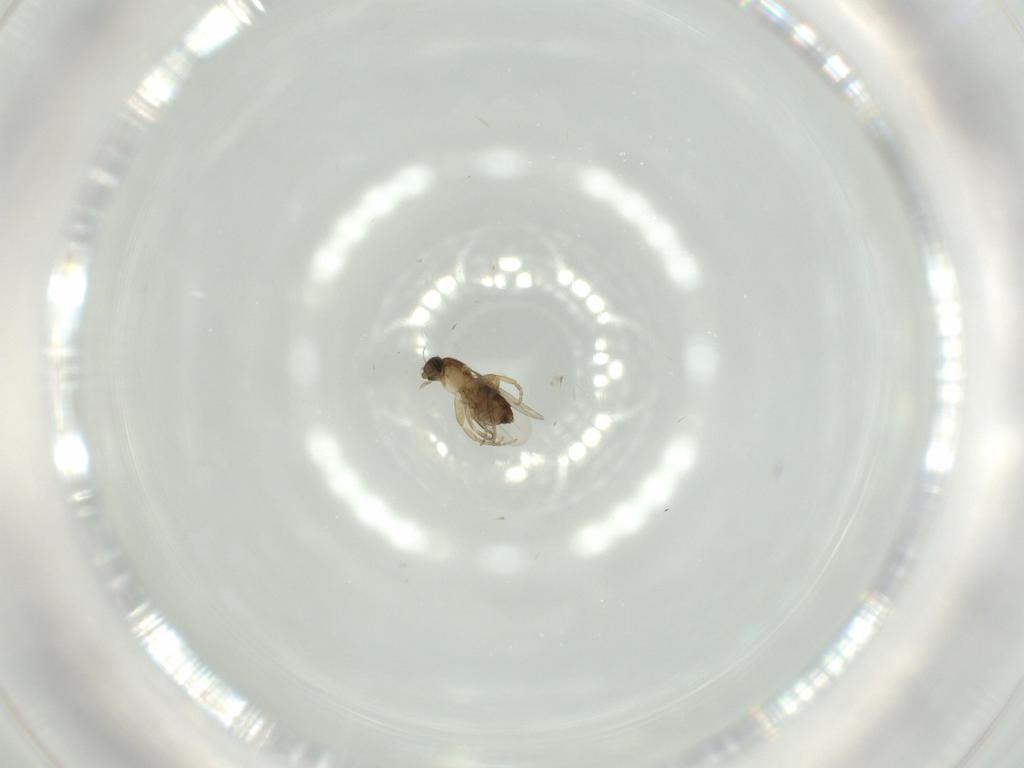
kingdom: Animalia
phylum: Arthropoda
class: Insecta
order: Diptera
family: Phoridae
